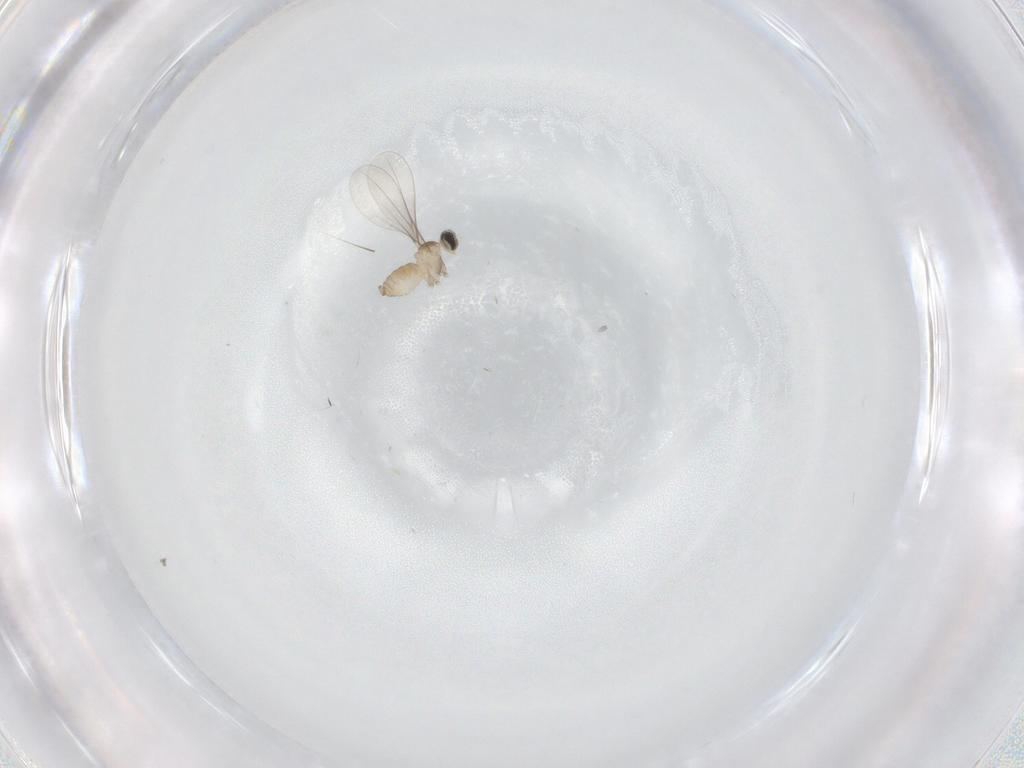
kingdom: Animalia
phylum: Arthropoda
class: Insecta
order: Diptera
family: Cecidomyiidae
